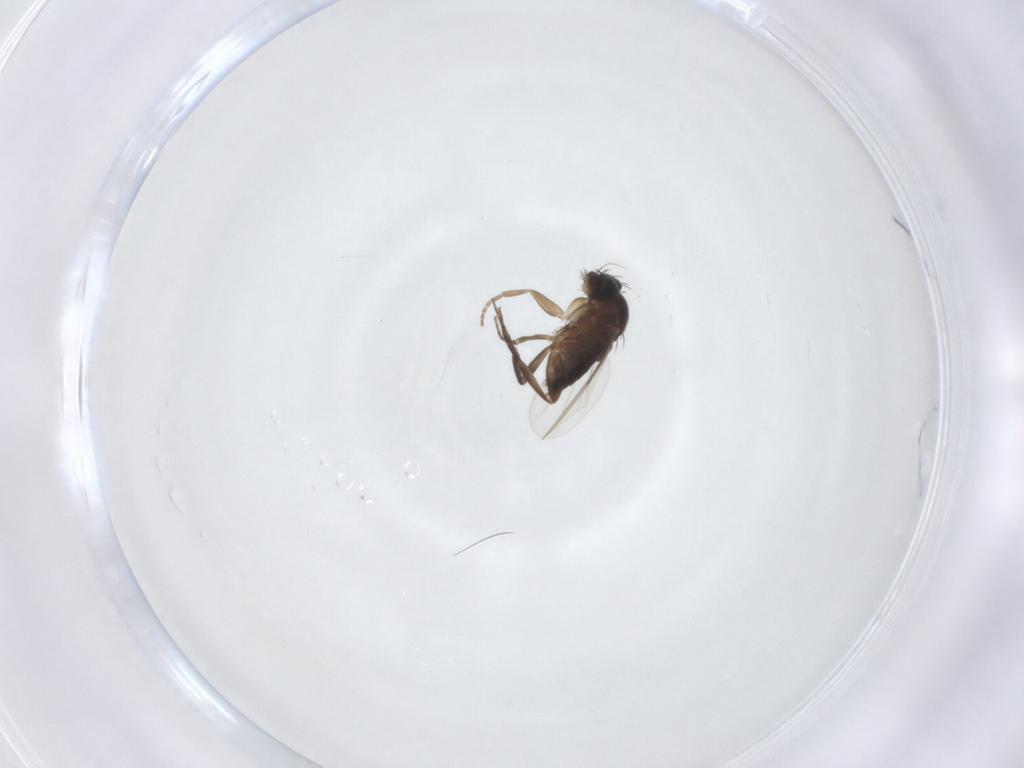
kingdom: Animalia
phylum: Arthropoda
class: Insecta
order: Diptera
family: Phoridae
